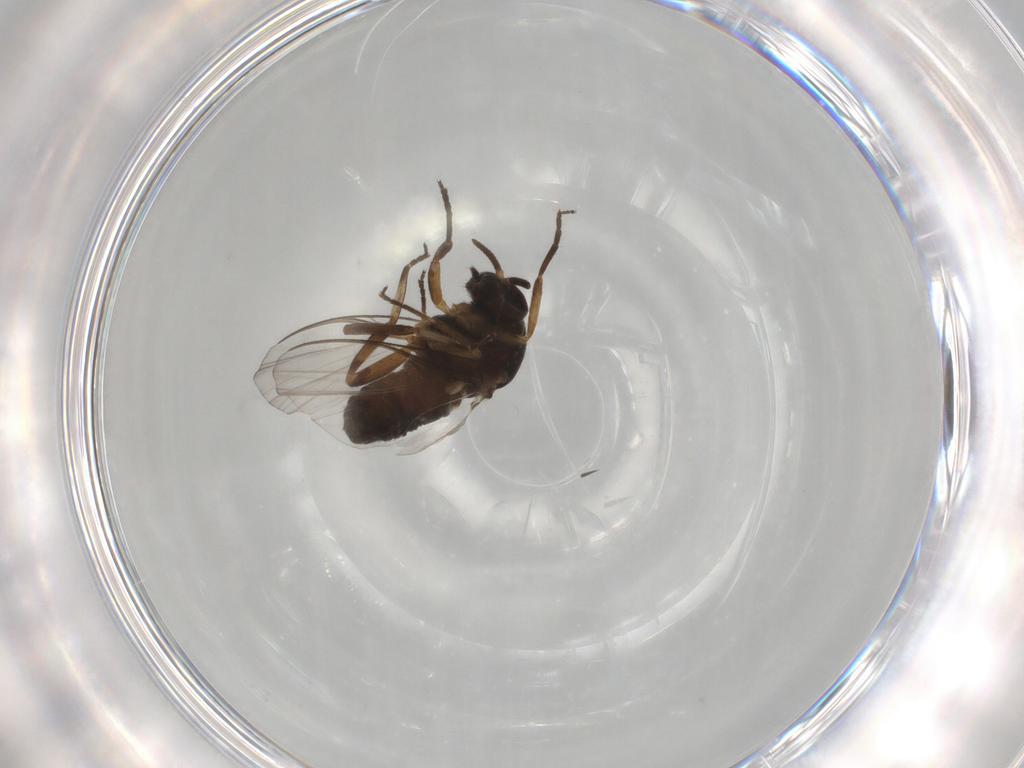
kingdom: Animalia
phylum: Arthropoda
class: Insecta
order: Diptera
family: Simuliidae
